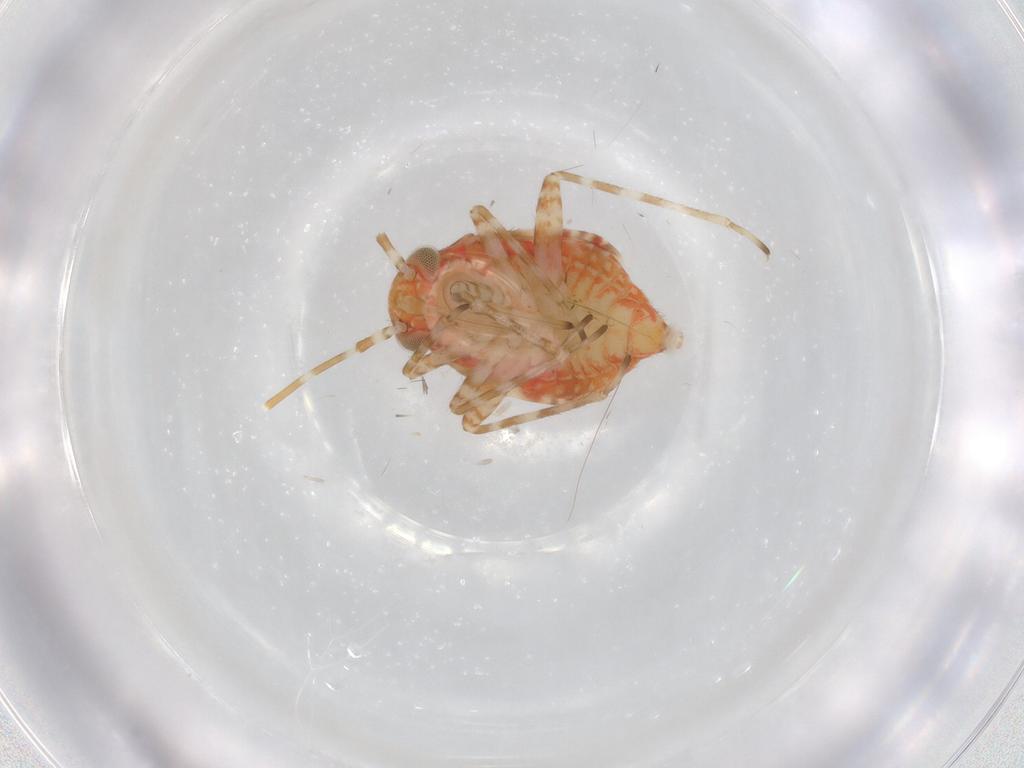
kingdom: Animalia
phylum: Arthropoda
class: Insecta
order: Hemiptera
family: Miridae
